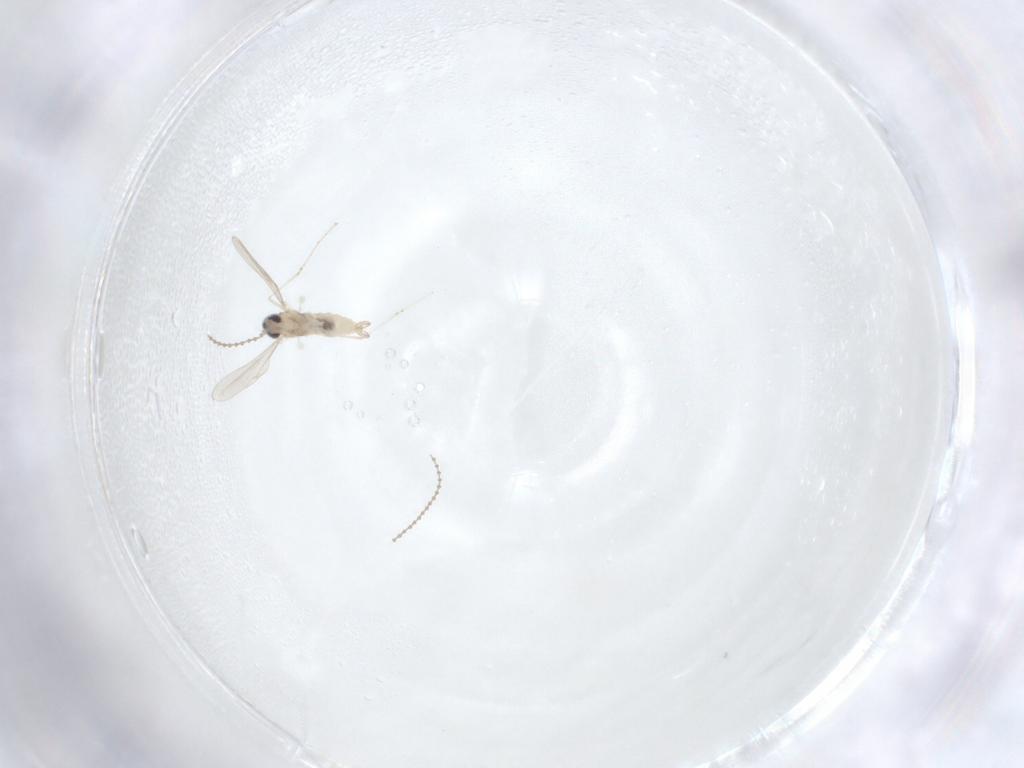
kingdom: Animalia
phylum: Arthropoda
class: Insecta
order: Diptera
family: Cecidomyiidae
